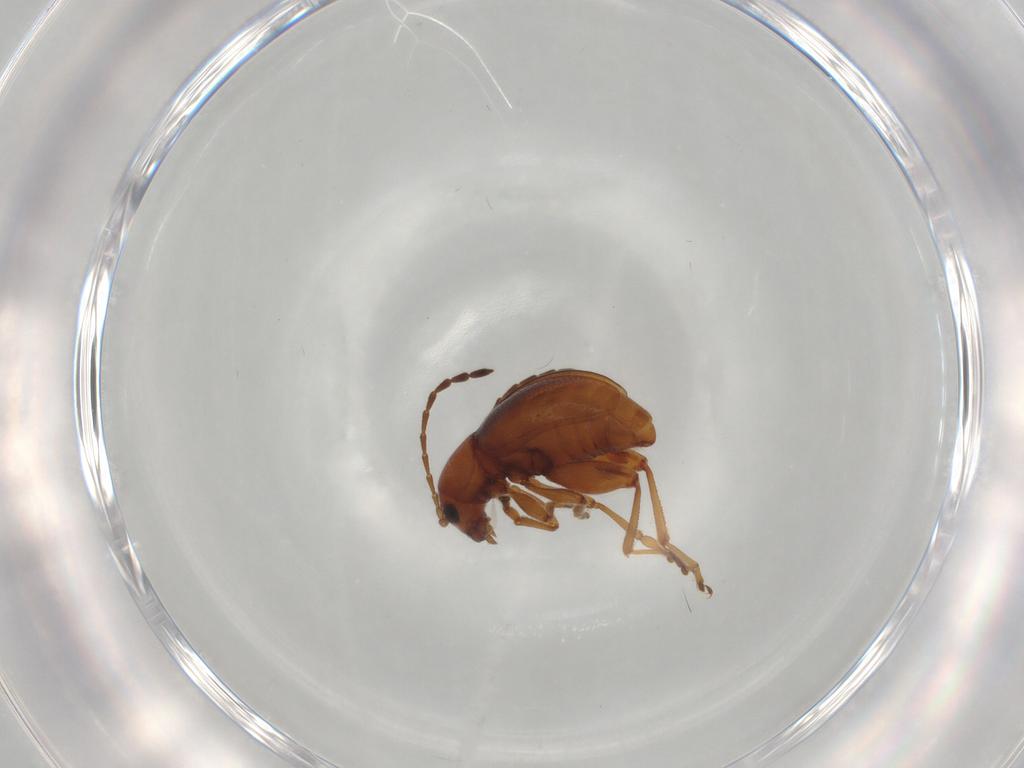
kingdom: Animalia
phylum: Arthropoda
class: Insecta
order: Coleoptera
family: Chrysomelidae
